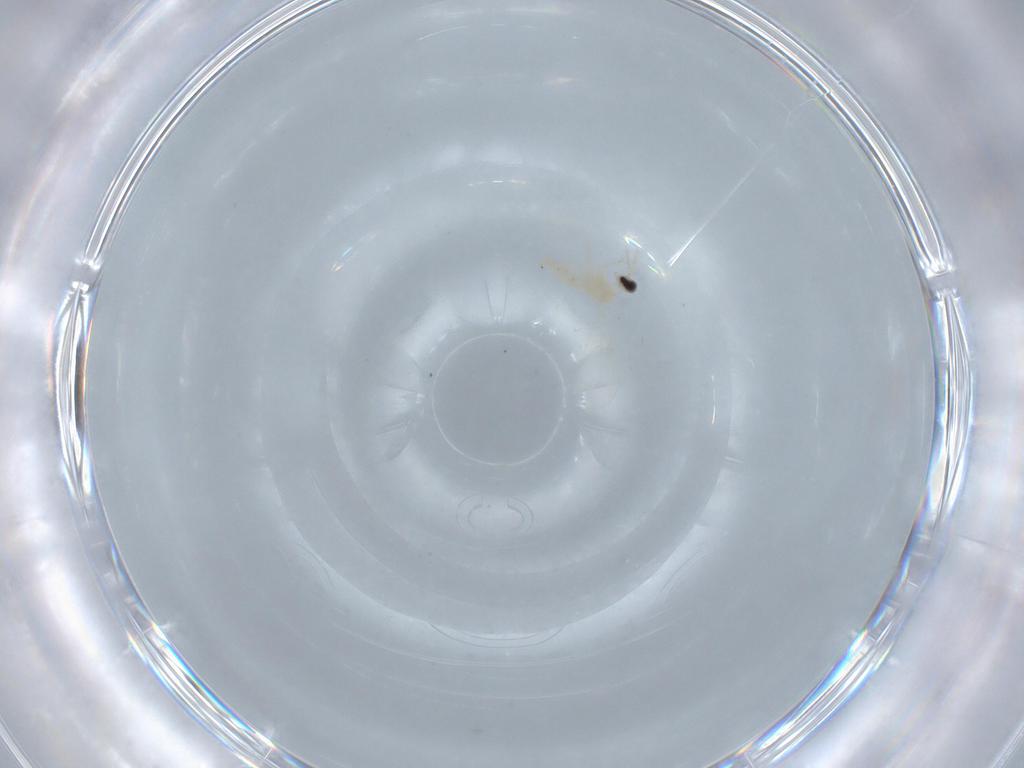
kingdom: Animalia
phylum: Arthropoda
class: Insecta
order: Diptera
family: Cecidomyiidae
